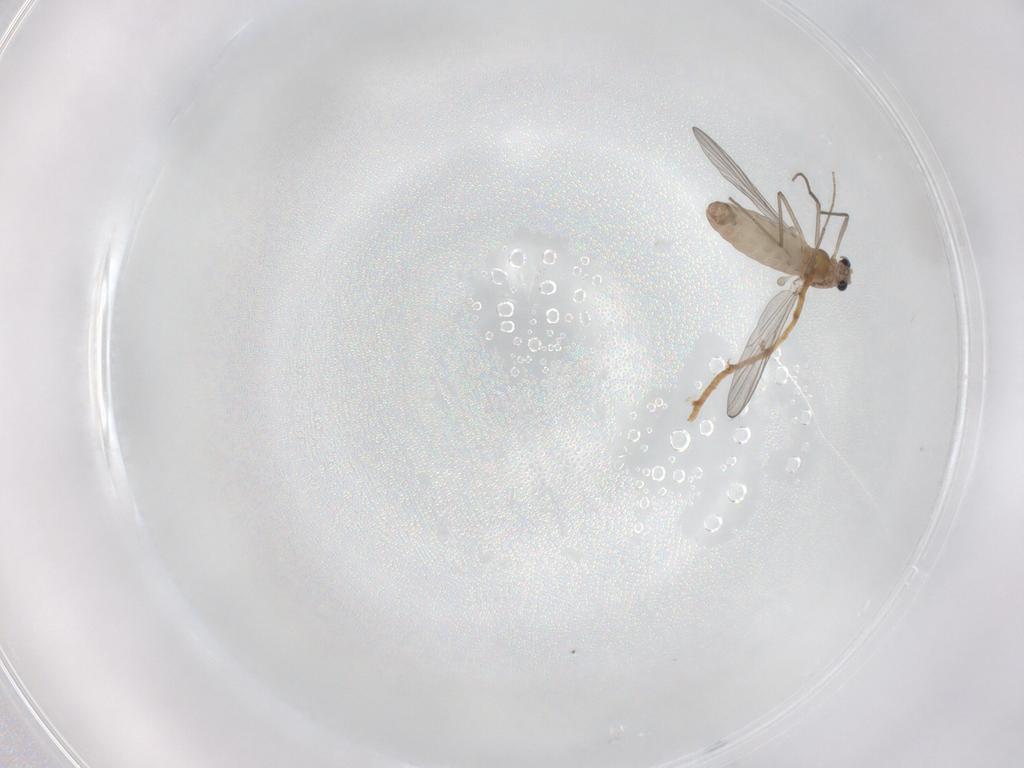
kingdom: Animalia
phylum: Arthropoda
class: Insecta
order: Diptera
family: Chironomidae
